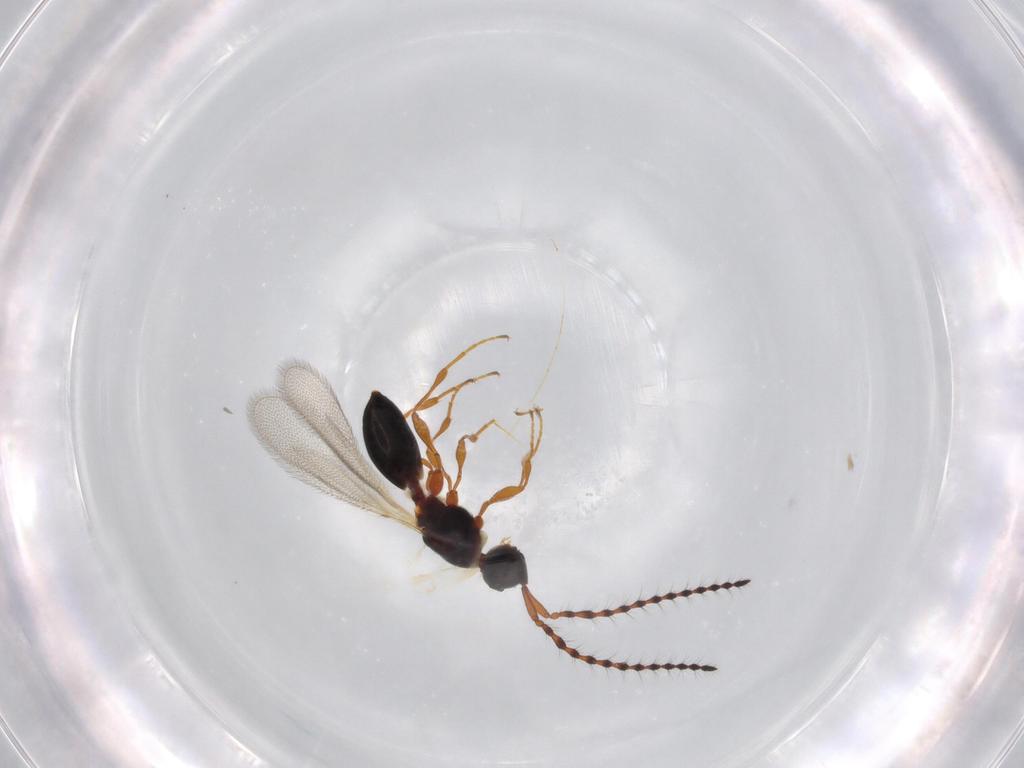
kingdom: Animalia
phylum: Arthropoda
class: Insecta
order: Hymenoptera
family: Diapriidae
